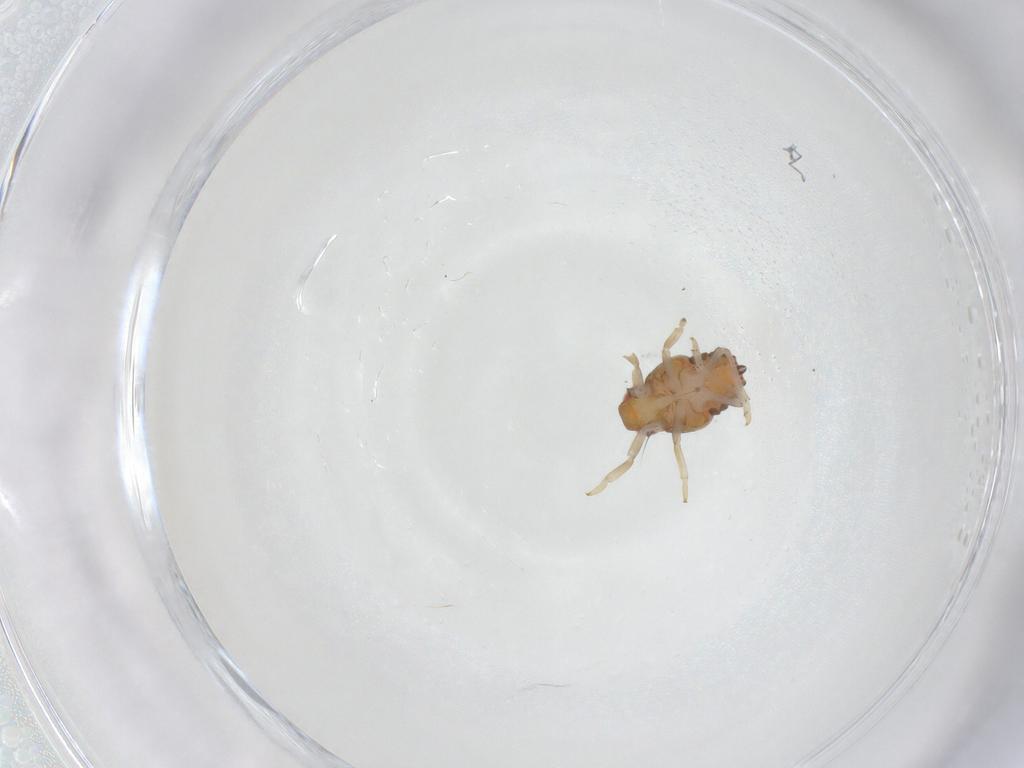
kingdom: Animalia
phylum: Arthropoda
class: Insecta
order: Hemiptera
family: Issidae
